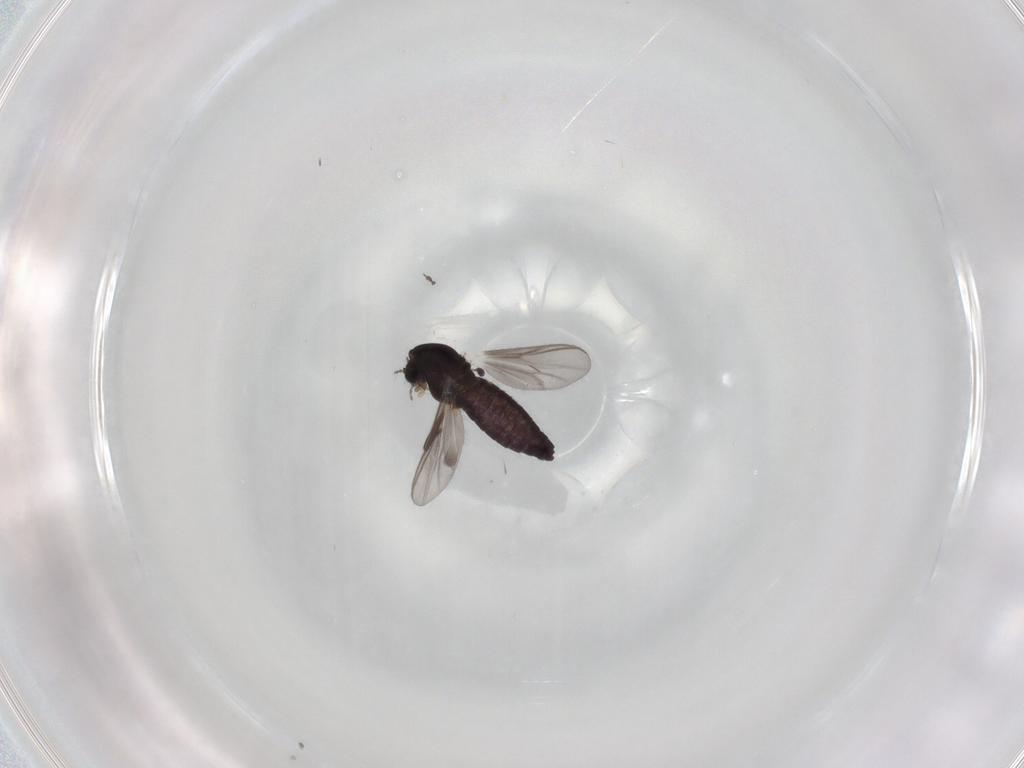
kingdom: Animalia
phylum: Arthropoda
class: Insecta
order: Diptera
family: Chironomidae
